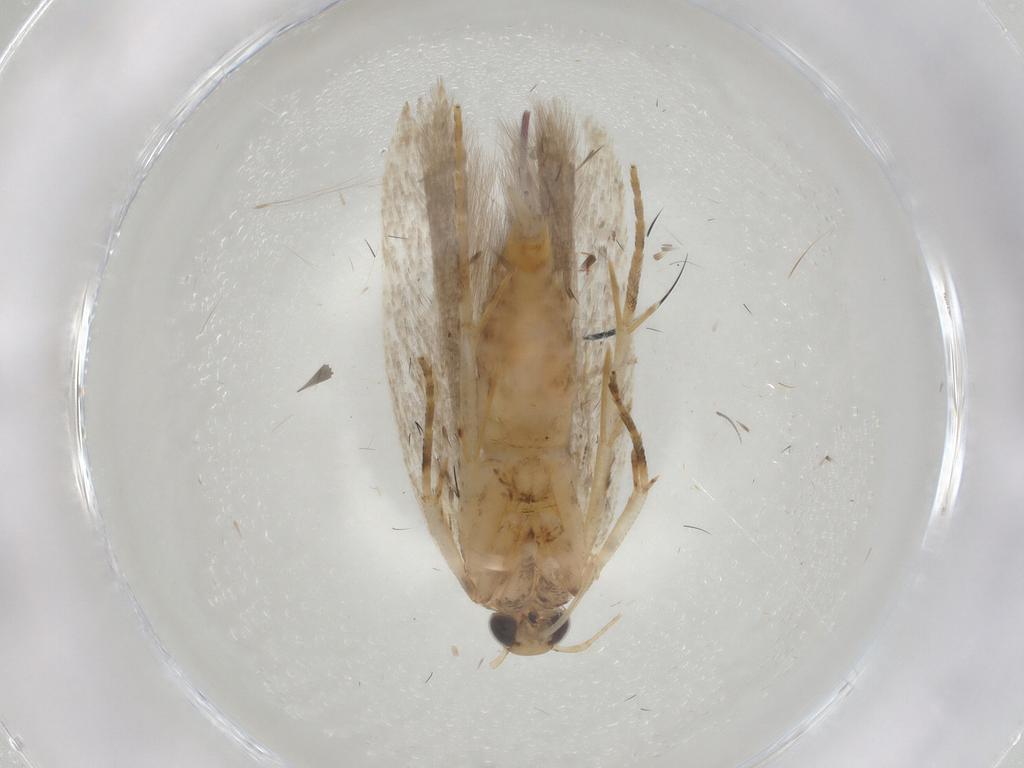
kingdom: Animalia
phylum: Arthropoda
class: Insecta
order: Lepidoptera
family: Gelechiidae
